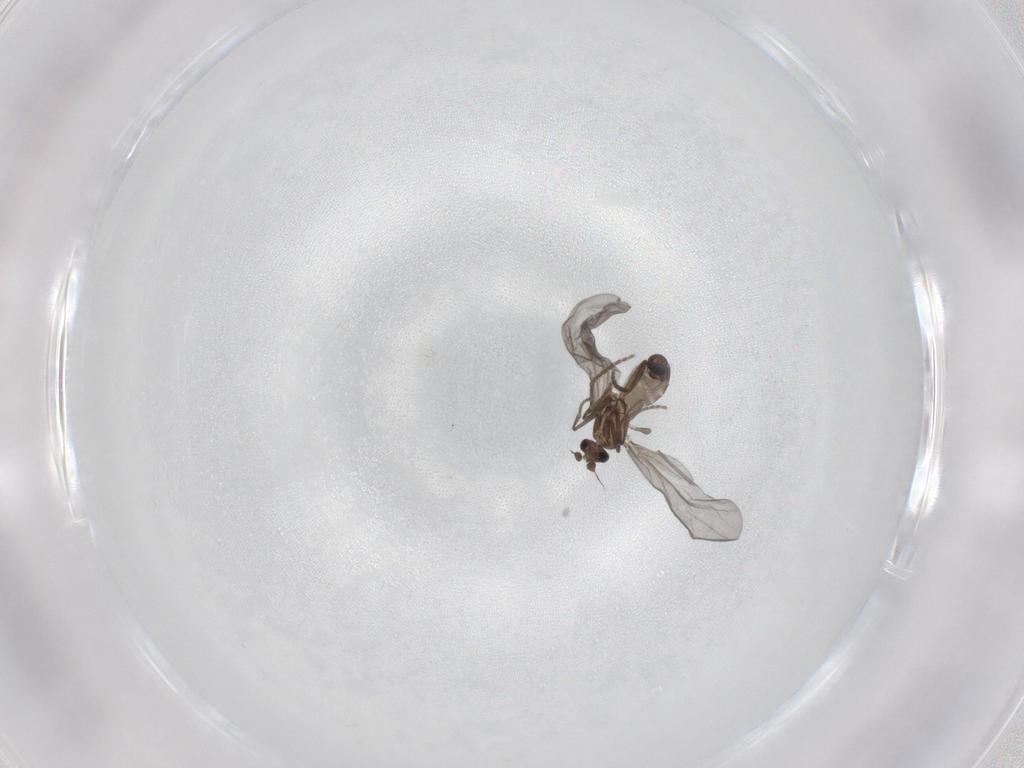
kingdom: Animalia
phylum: Arthropoda
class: Insecta
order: Diptera
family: Phoridae
